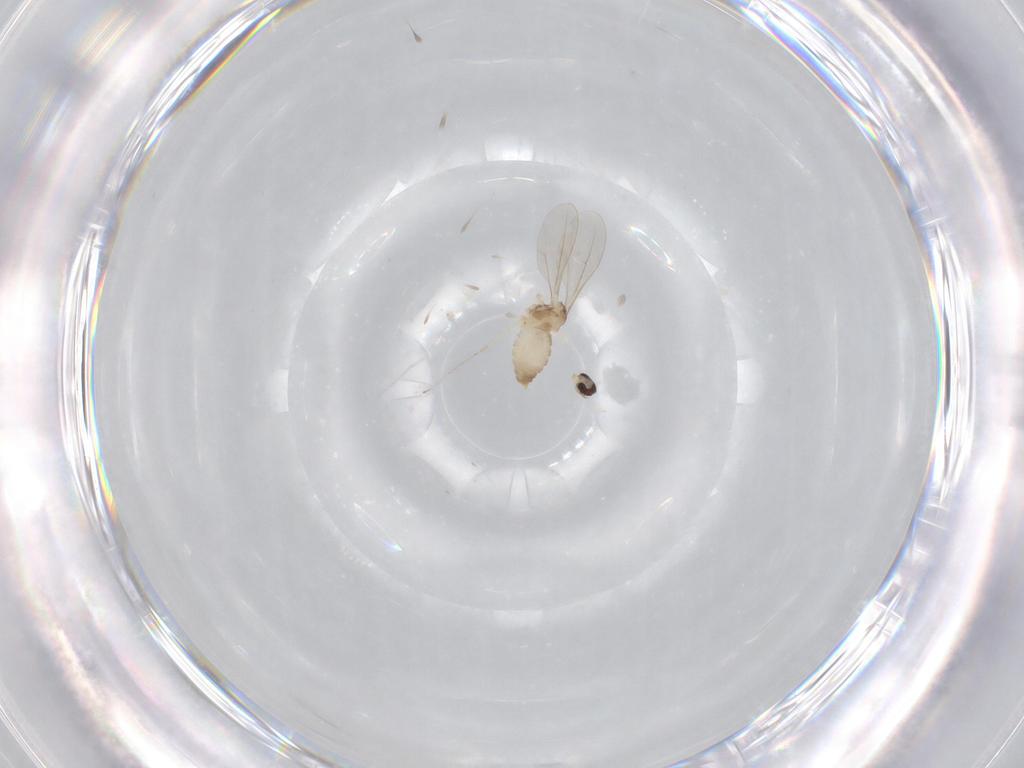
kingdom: Animalia
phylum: Arthropoda
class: Insecta
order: Diptera
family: Cecidomyiidae
